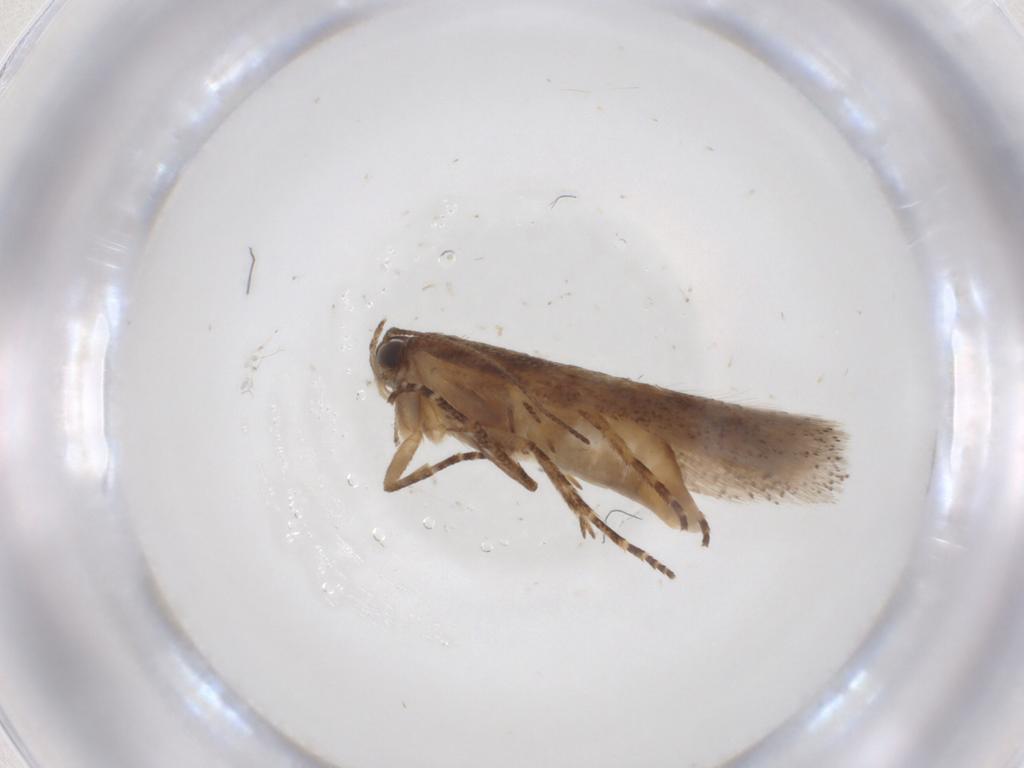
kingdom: Animalia
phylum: Arthropoda
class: Insecta
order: Lepidoptera
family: Gelechiidae
